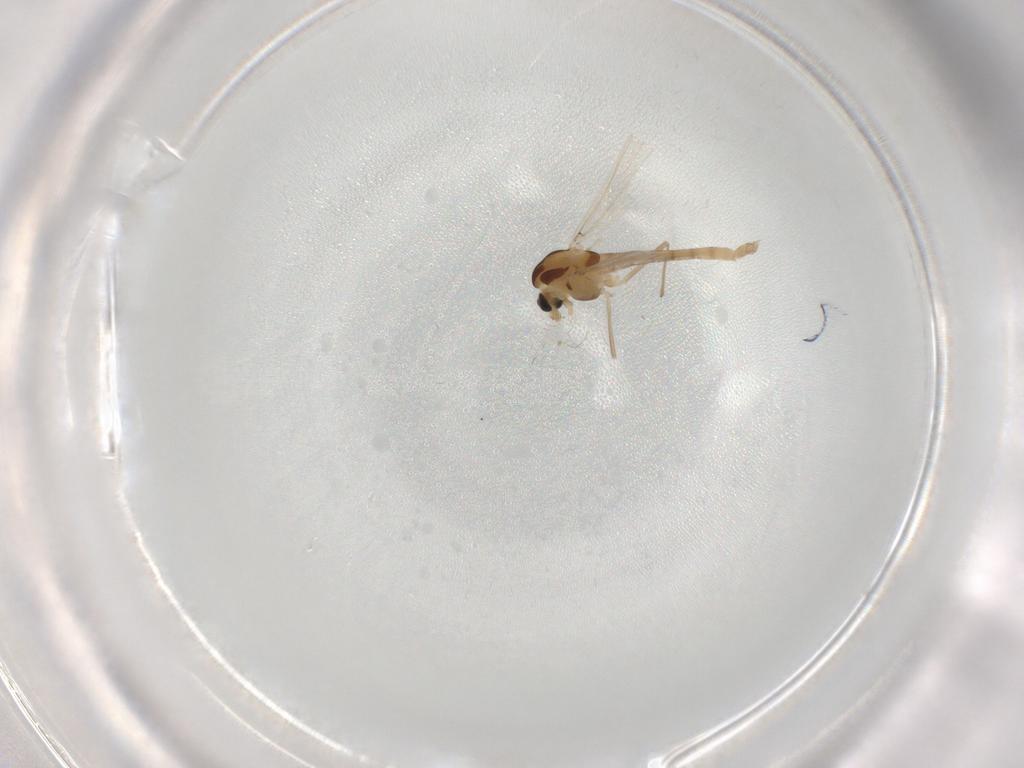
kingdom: Animalia
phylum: Arthropoda
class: Insecta
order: Diptera
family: Chironomidae
